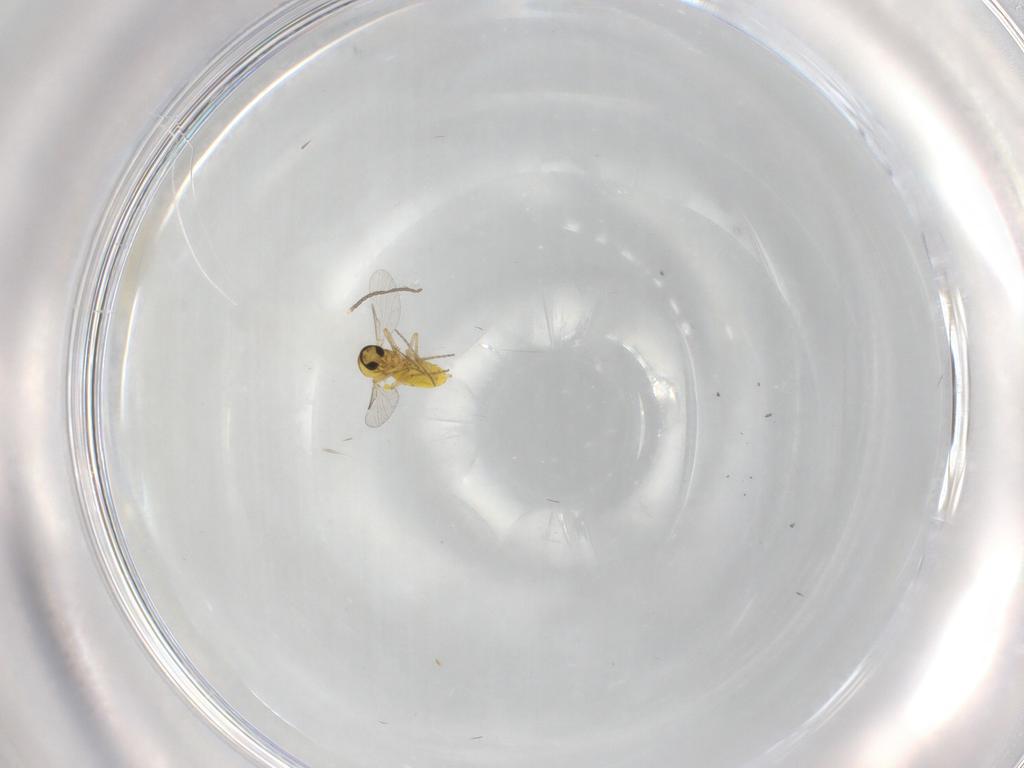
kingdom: Animalia
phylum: Arthropoda
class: Insecta
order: Diptera
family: Ceratopogonidae
